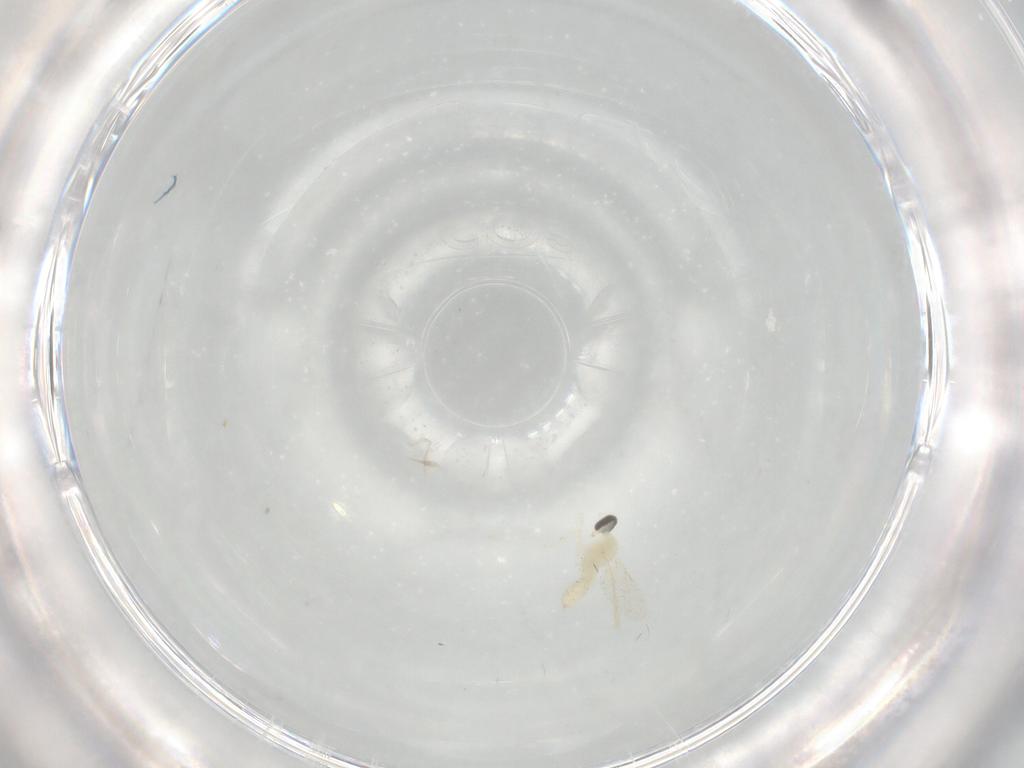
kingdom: Animalia
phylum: Arthropoda
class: Insecta
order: Diptera
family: Cecidomyiidae
